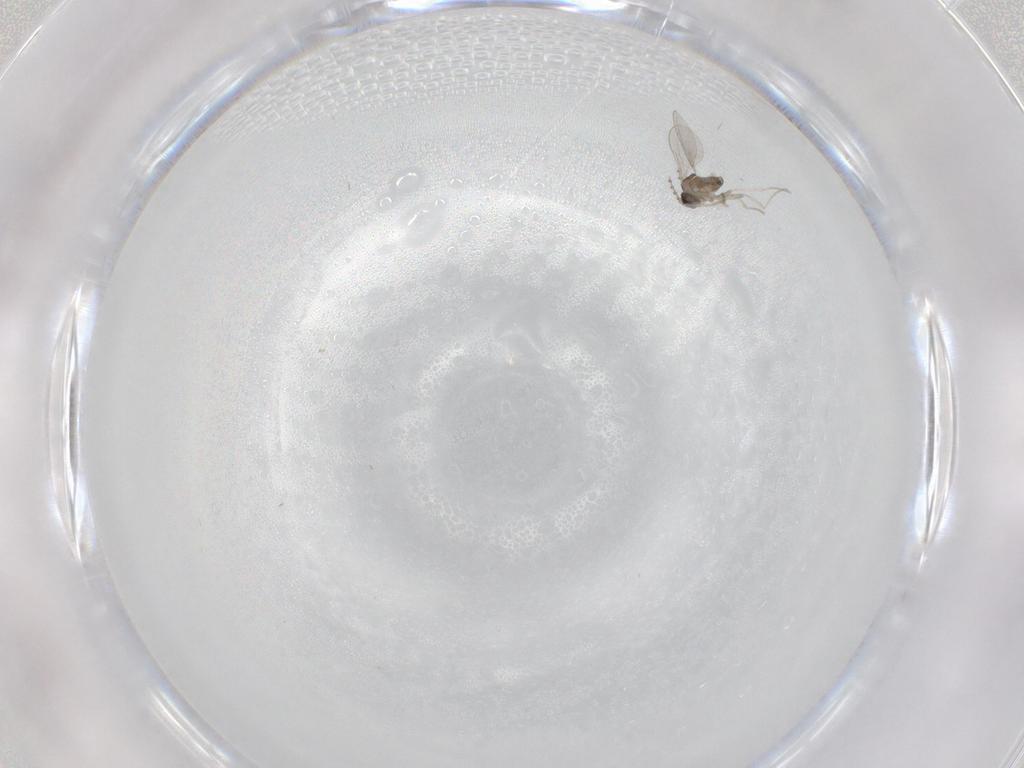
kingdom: Animalia
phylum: Arthropoda
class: Insecta
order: Diptera
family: Cecidomyiidae
